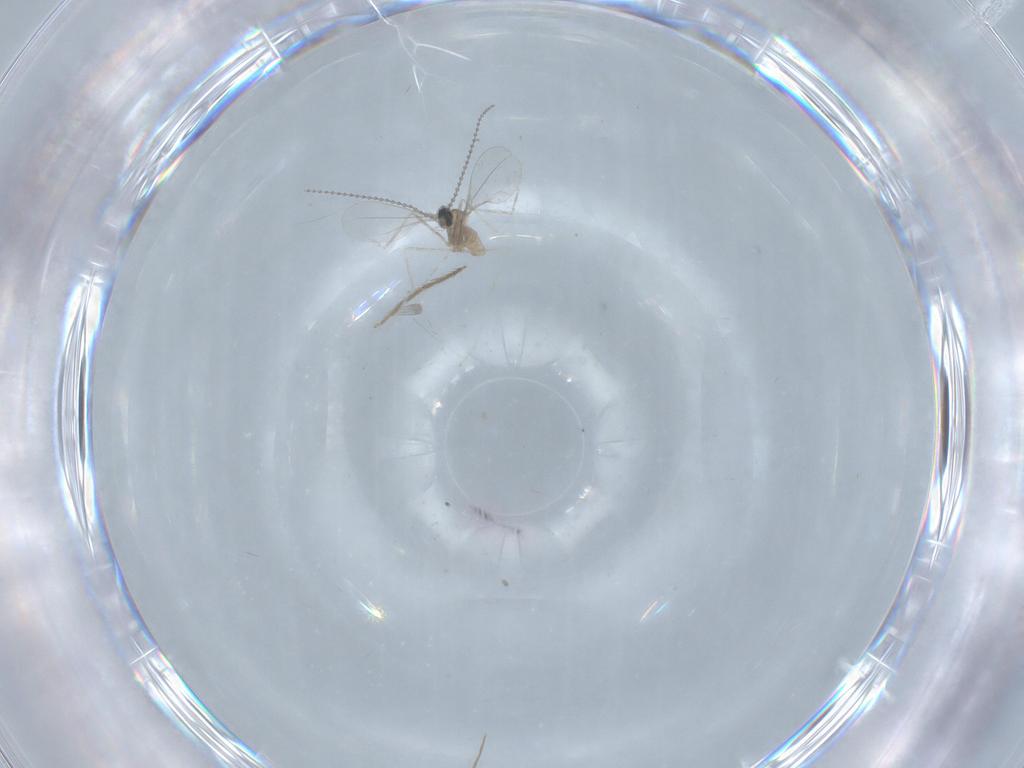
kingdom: Animalia
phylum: Arthropoda
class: Insecta
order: Diptera
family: Cecidomyiidae
